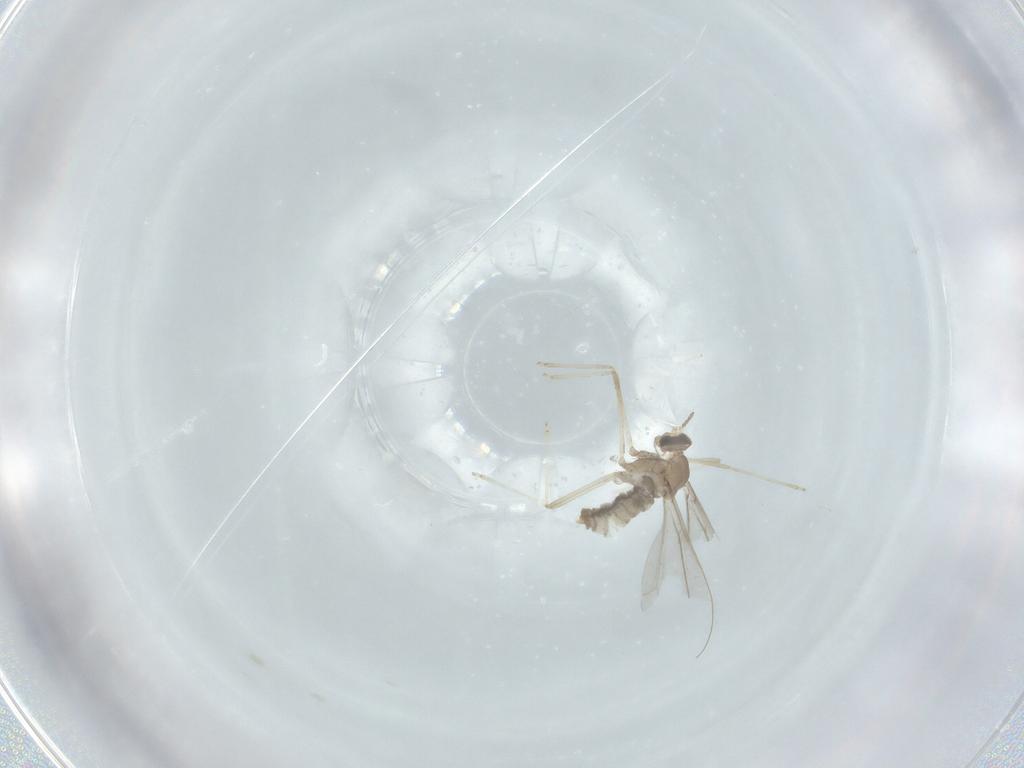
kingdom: Animalia
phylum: Arthropoda
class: Insecta
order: Diptera
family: Cecidomyiidae
